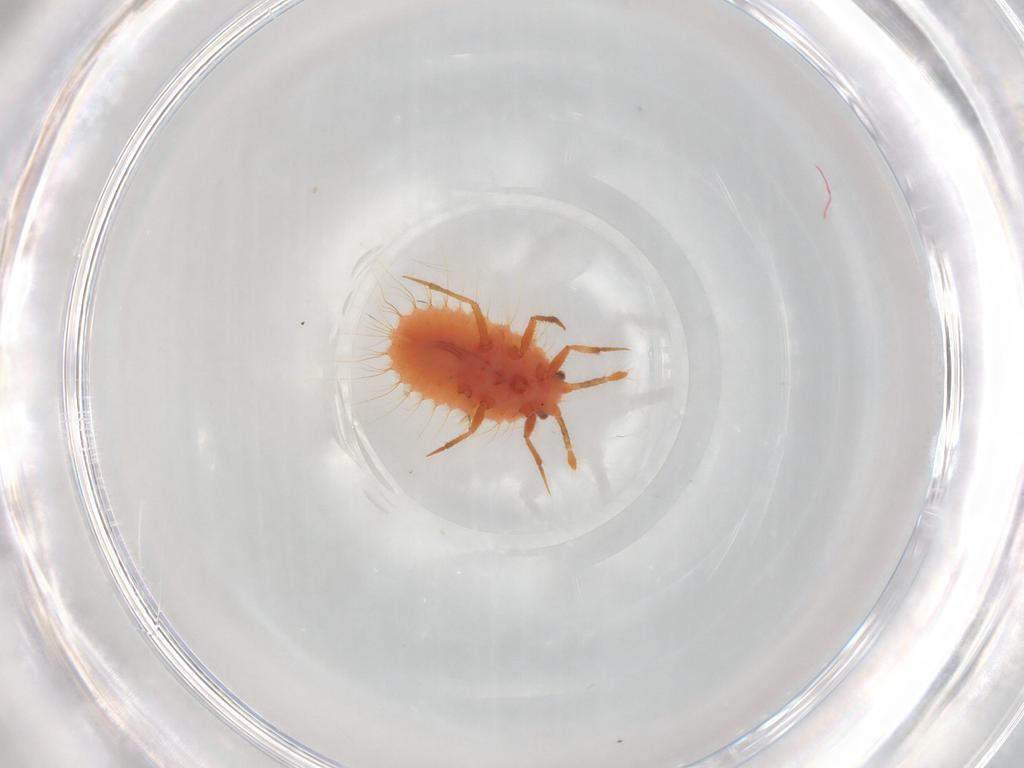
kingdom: Animalia
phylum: Arthropoda
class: Insecta
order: Hemiptera
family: Coccoidea_incertae_sedis
